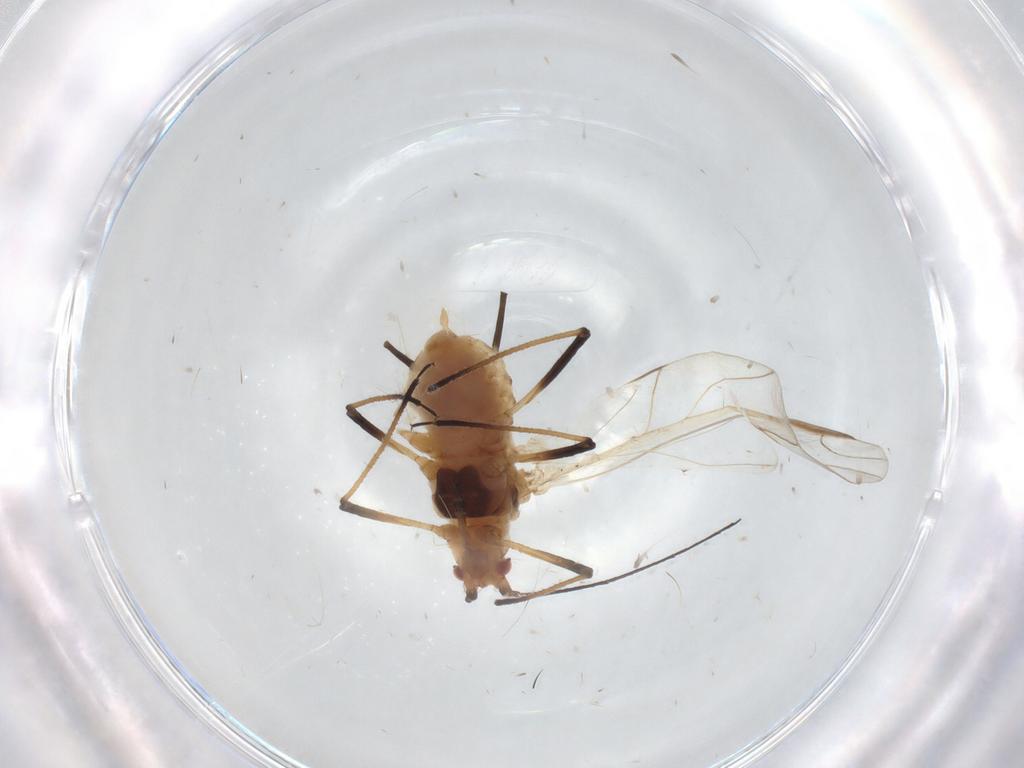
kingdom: Animalia
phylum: Arthropoda
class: Insecta
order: Hemiptera
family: Aphididae
